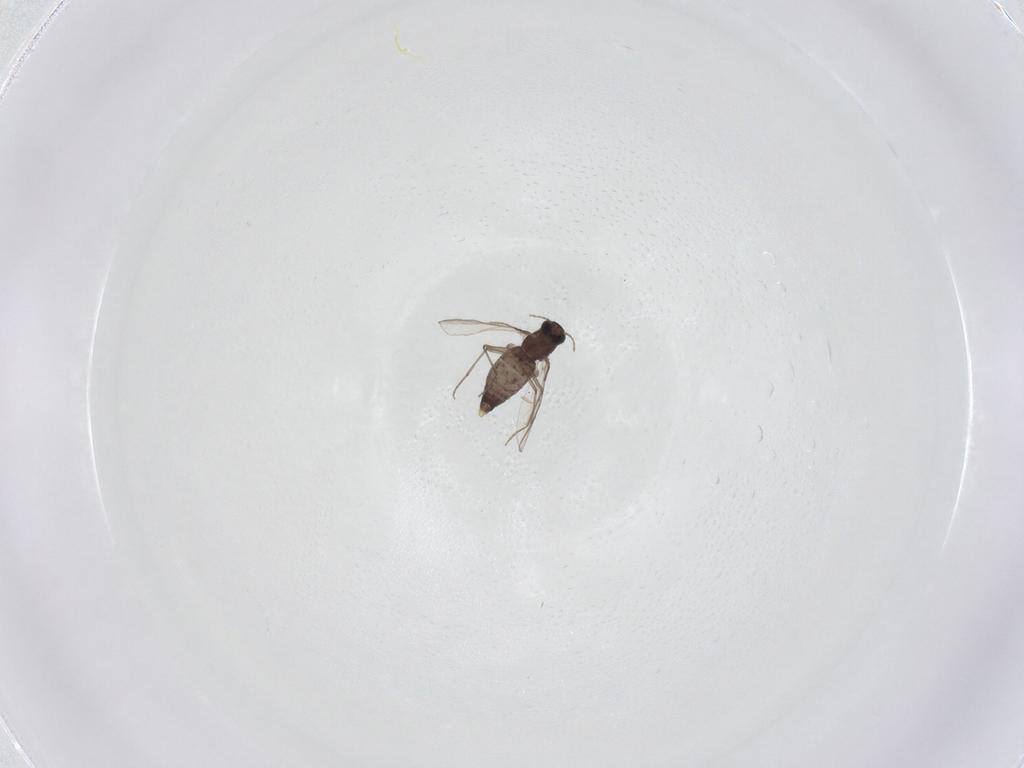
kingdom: Animalia
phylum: Arthropoda
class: Insecta
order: Diptera
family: Chironomidae
